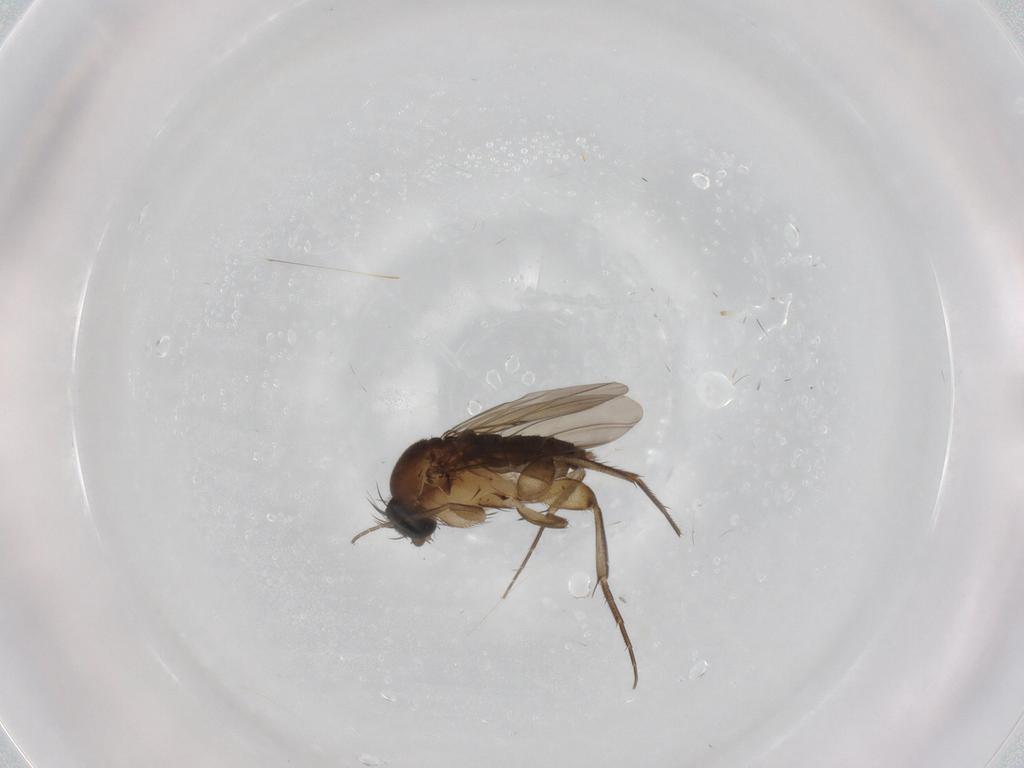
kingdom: Animalia
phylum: Arthropoda
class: Insecta
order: Diptera
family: Phoridae
